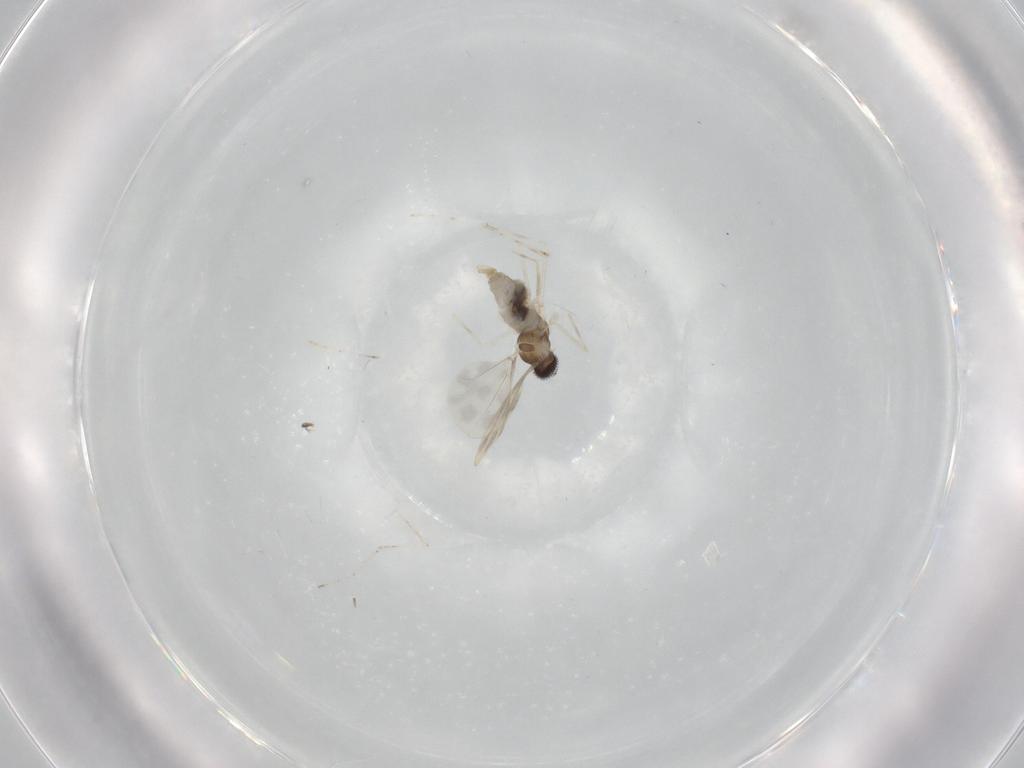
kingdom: Animalia
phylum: Arthropoda
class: Insecta
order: Diptera
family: Cecidomyiidae
